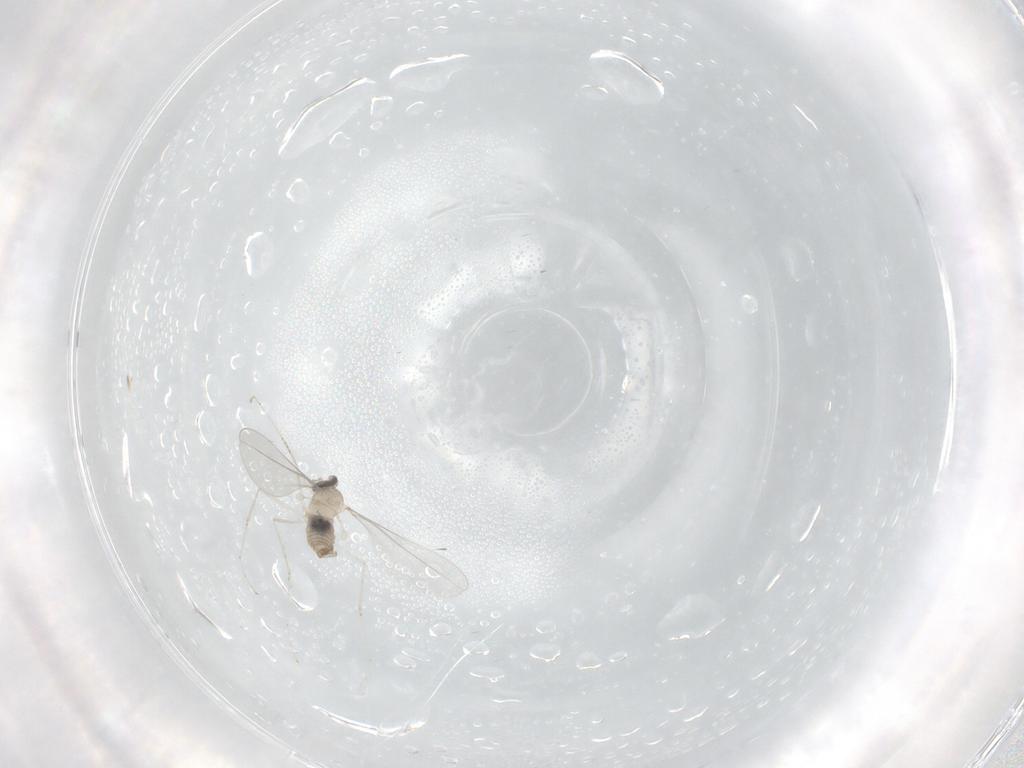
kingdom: Animalia
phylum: Arthropoda
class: Insecta
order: Diptera
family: Cecidomyiidae
